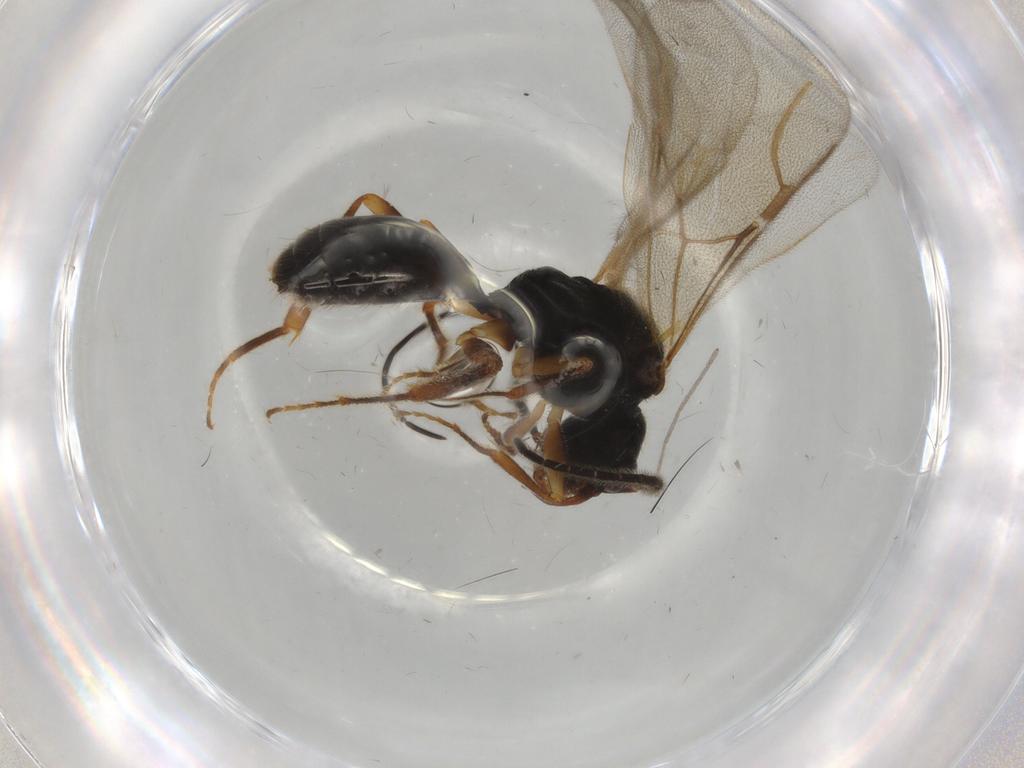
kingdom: Animalia
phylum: Arthropoda
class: Insecta
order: Hymenoptera
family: Bethylidae
